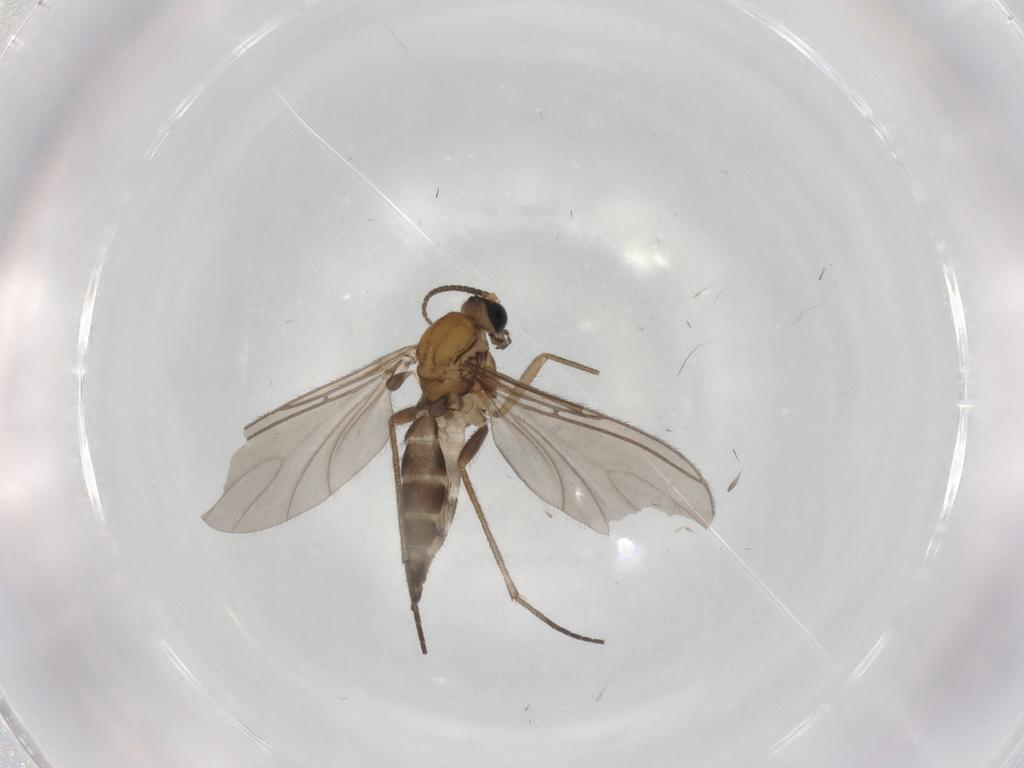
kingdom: Animalia
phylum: Arthropoda
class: Insecta
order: Diptera
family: Sciaridae
